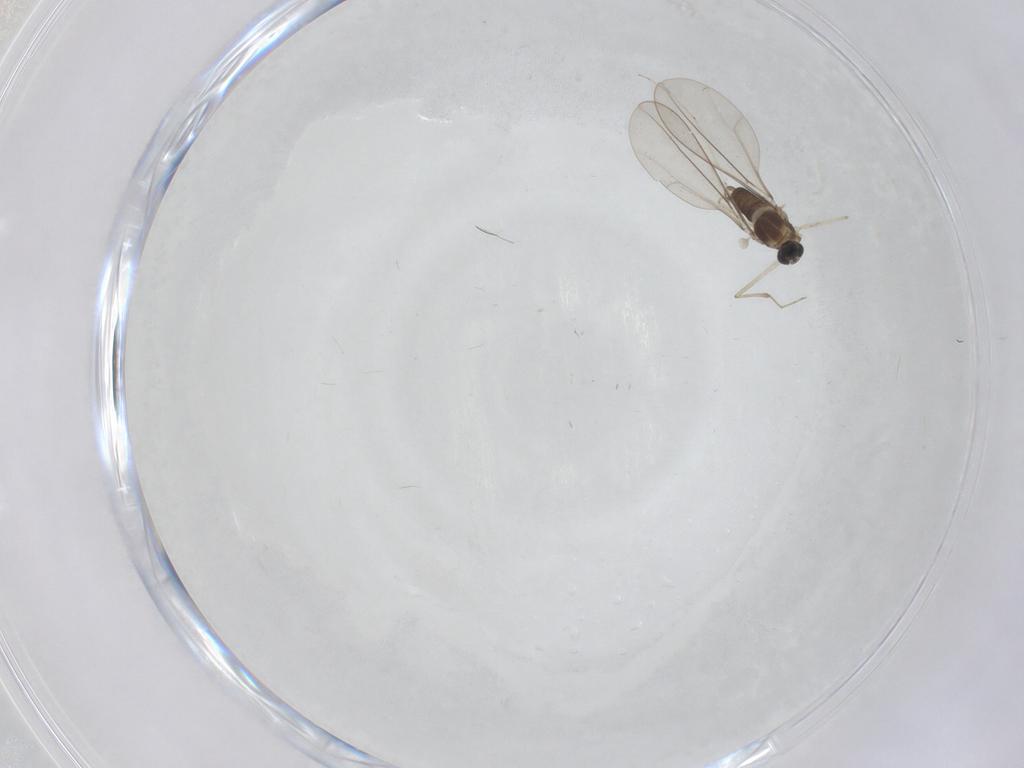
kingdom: Animalia
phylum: Arthropoda
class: Insecta
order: Diptera
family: Cecidomyiidae
